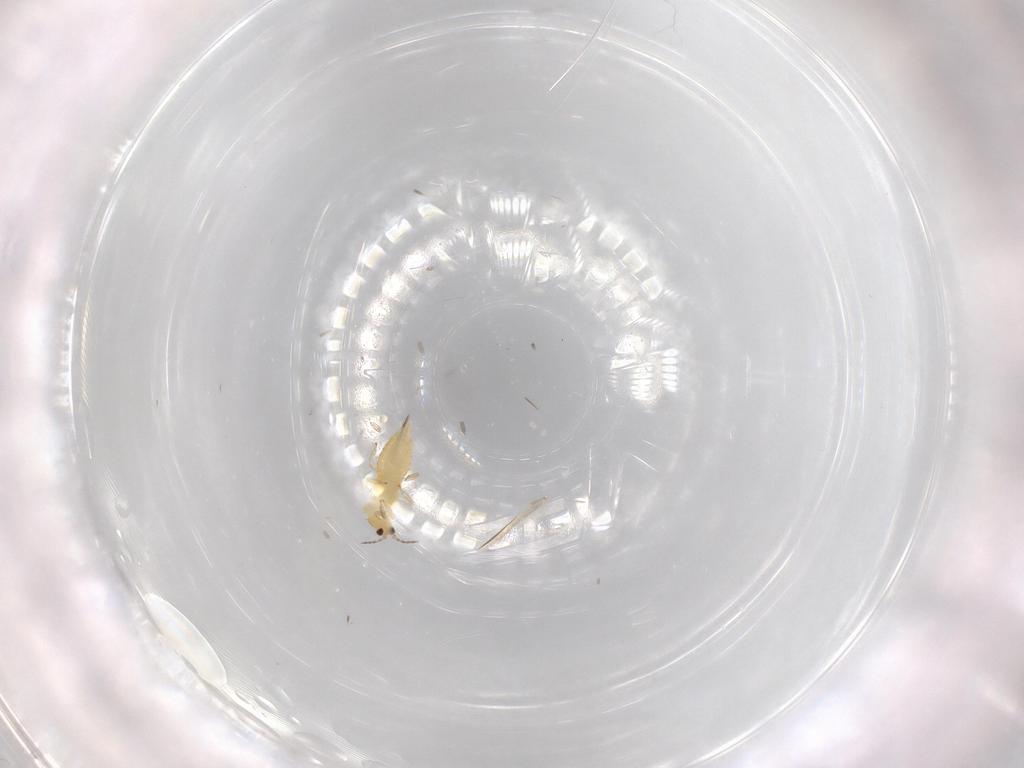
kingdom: Animalia
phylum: Arthropoda
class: Insecta
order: Thysanoptera
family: Thripidae
